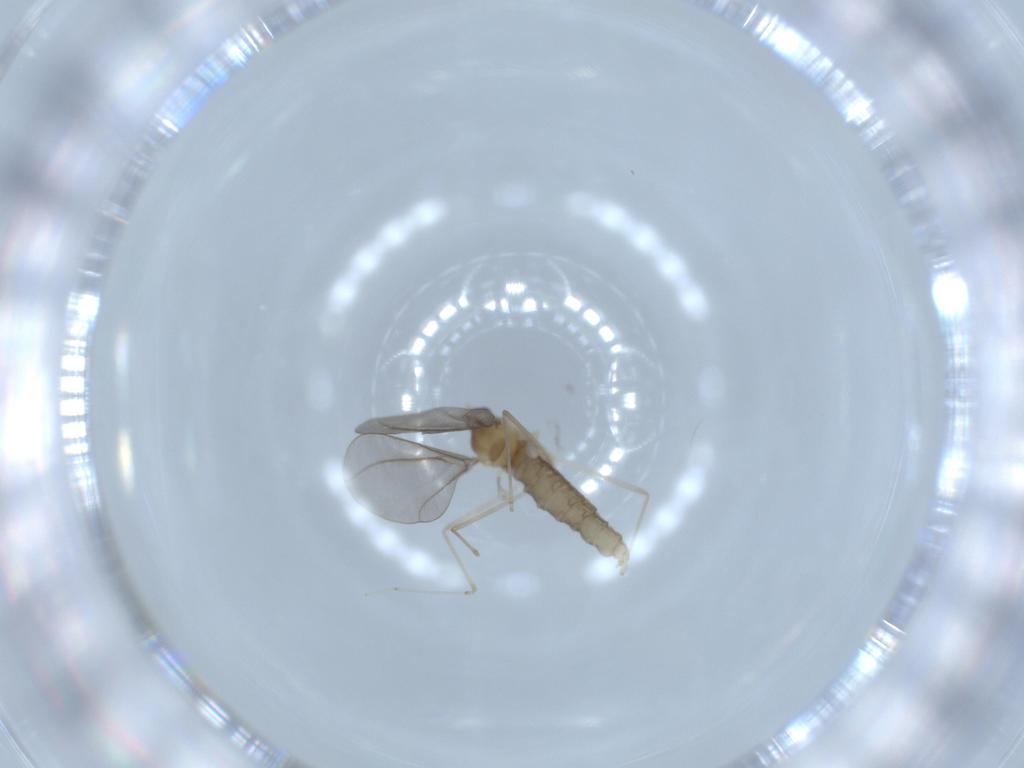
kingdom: Animalia
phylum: Arthropoda
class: Insecta
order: Diptera
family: Cecidomyiidae
